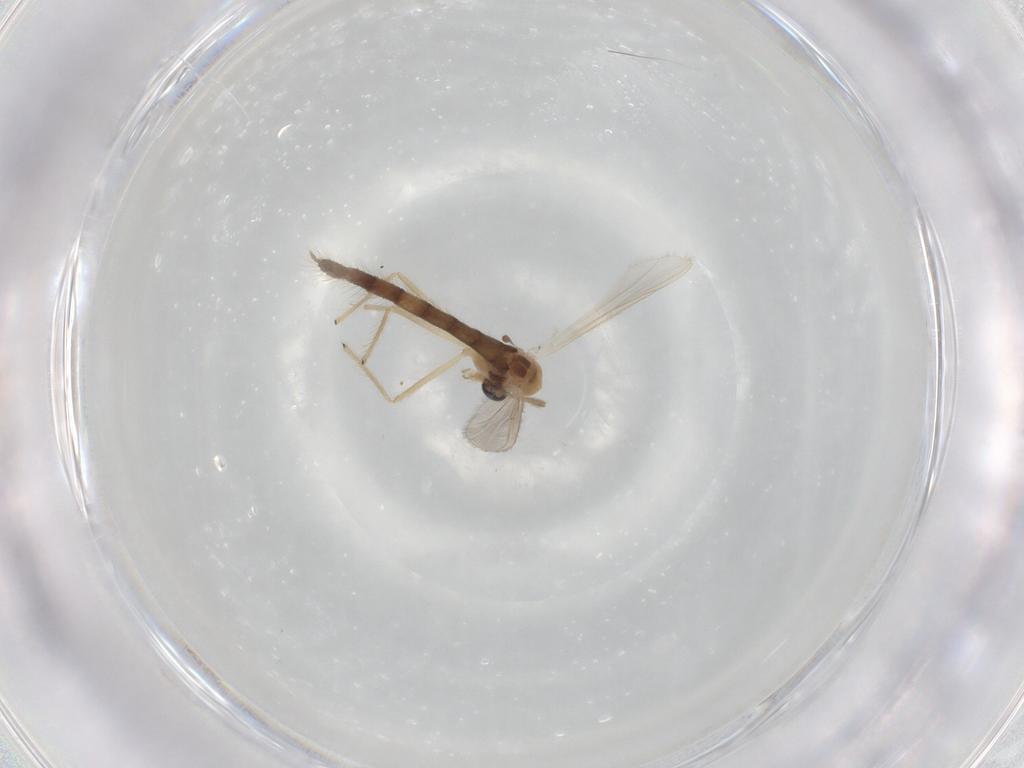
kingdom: Animalia
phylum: Arthropoda
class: Insecta
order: Diptera
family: Chironomidae
